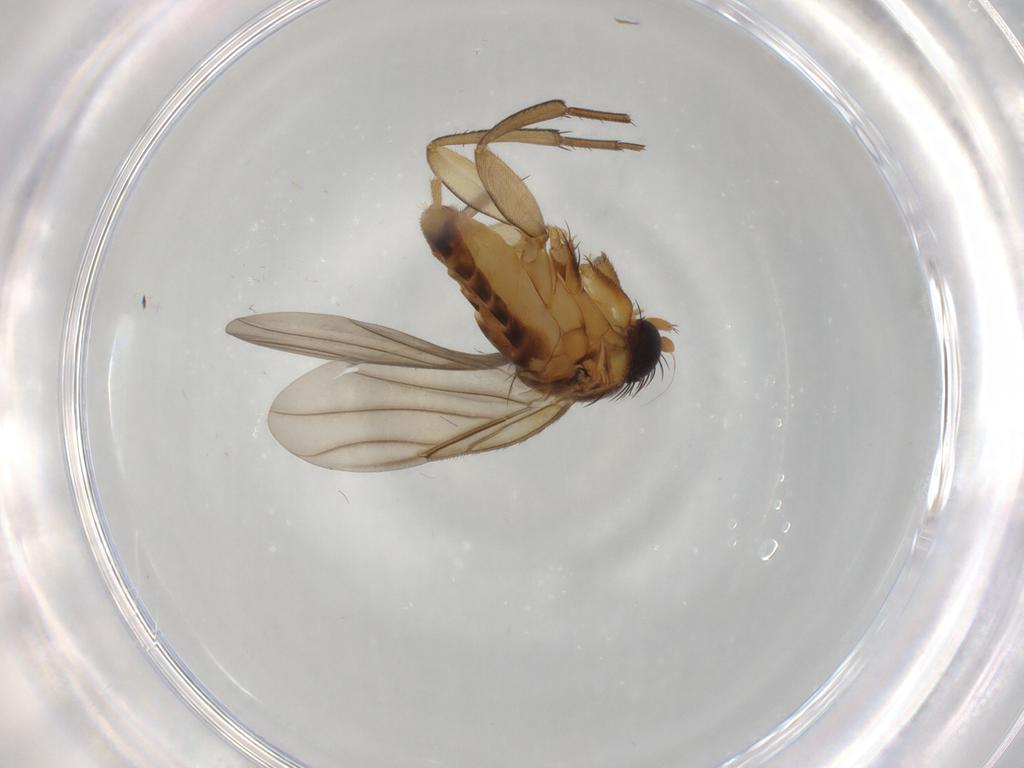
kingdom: Animalia
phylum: Arthropoda
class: Insecta
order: Diptera
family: Phoridae
